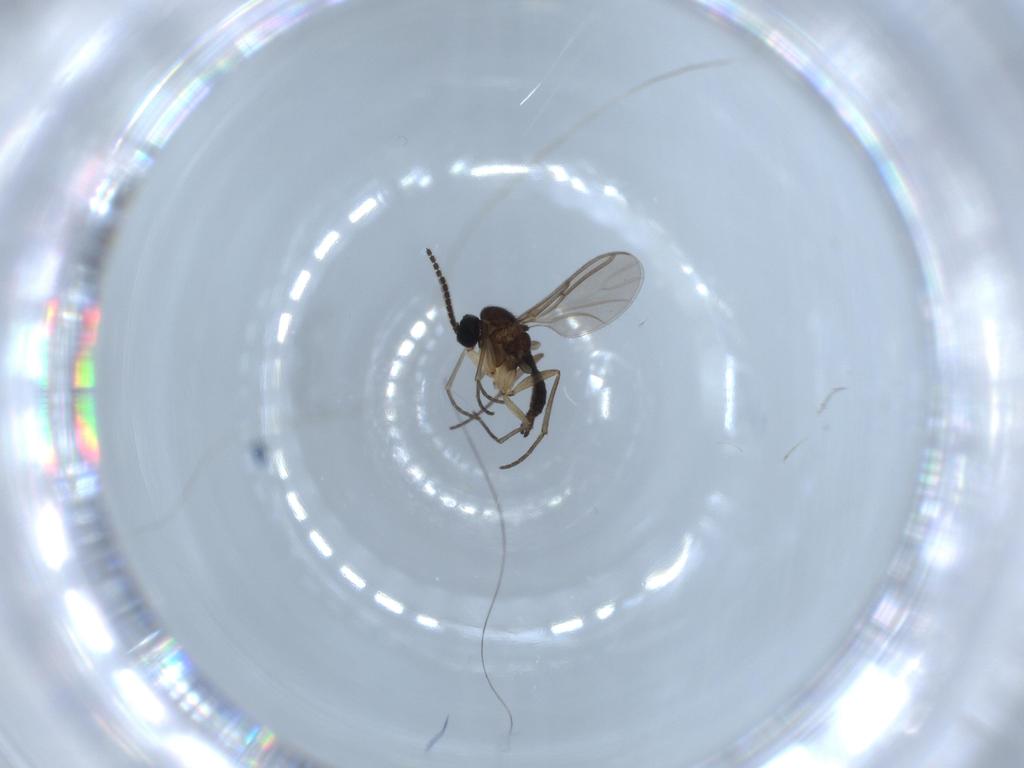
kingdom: Animalia
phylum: Arthropoda
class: Insecta
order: Diptera
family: Sciaridae
